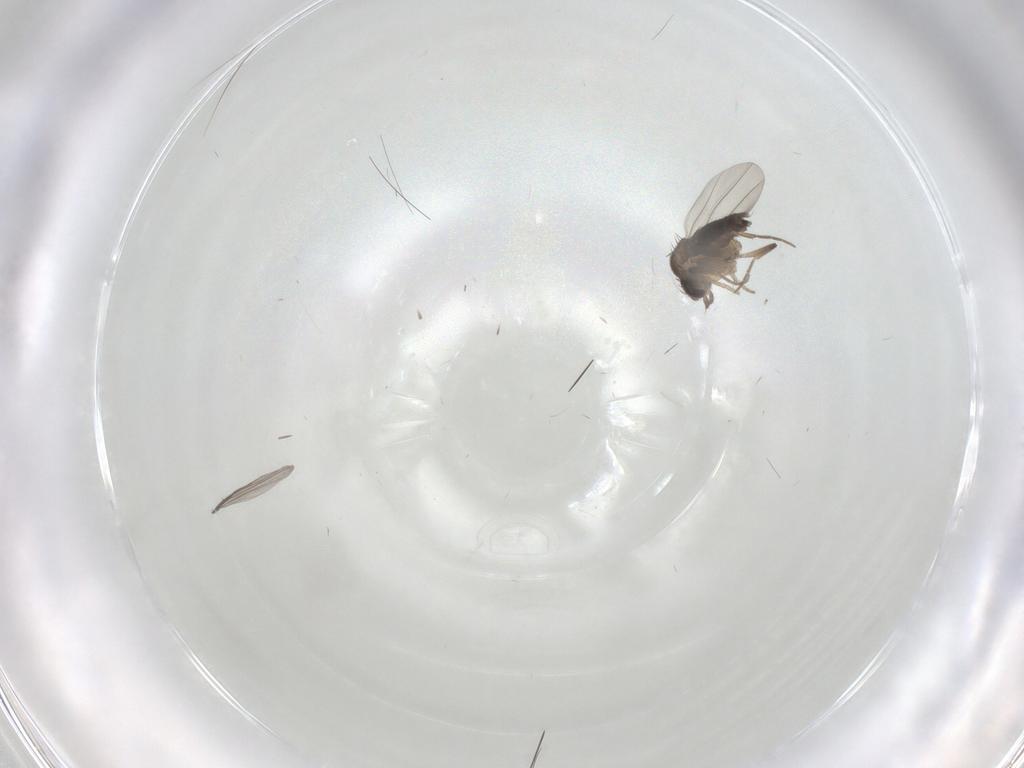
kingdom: Animalia
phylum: Arthropoda
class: Insecta
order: Diptera
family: Phoridae
